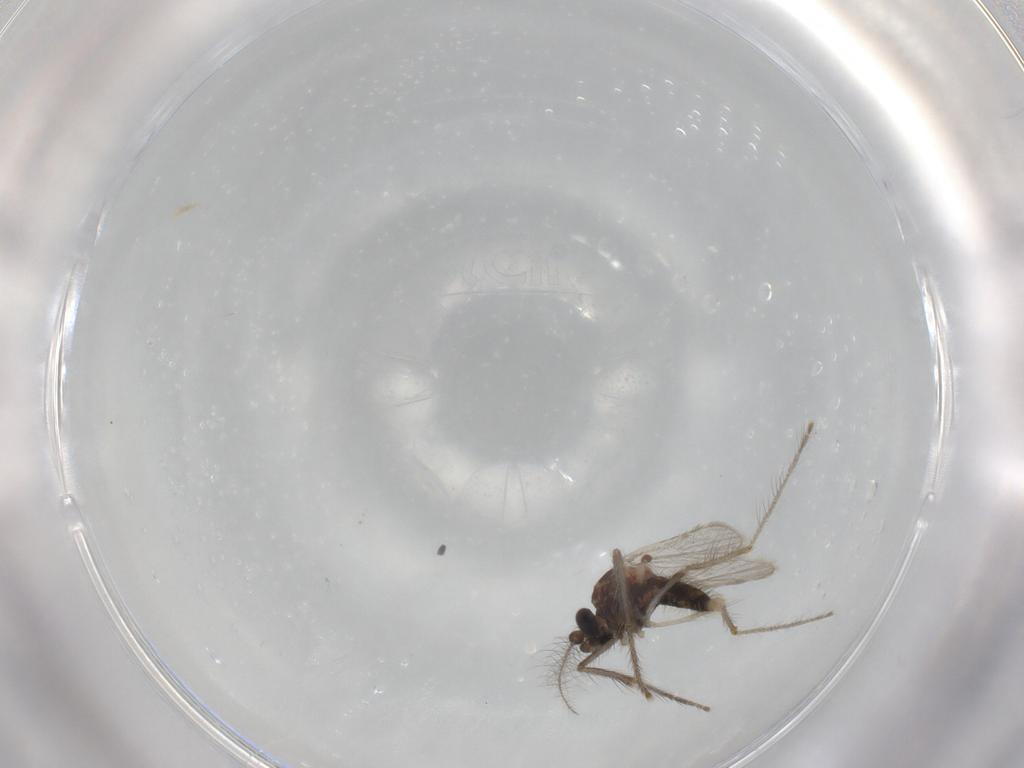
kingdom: Animalia
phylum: Arthropoda
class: Insecta
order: Diptera
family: Corethrellidae
